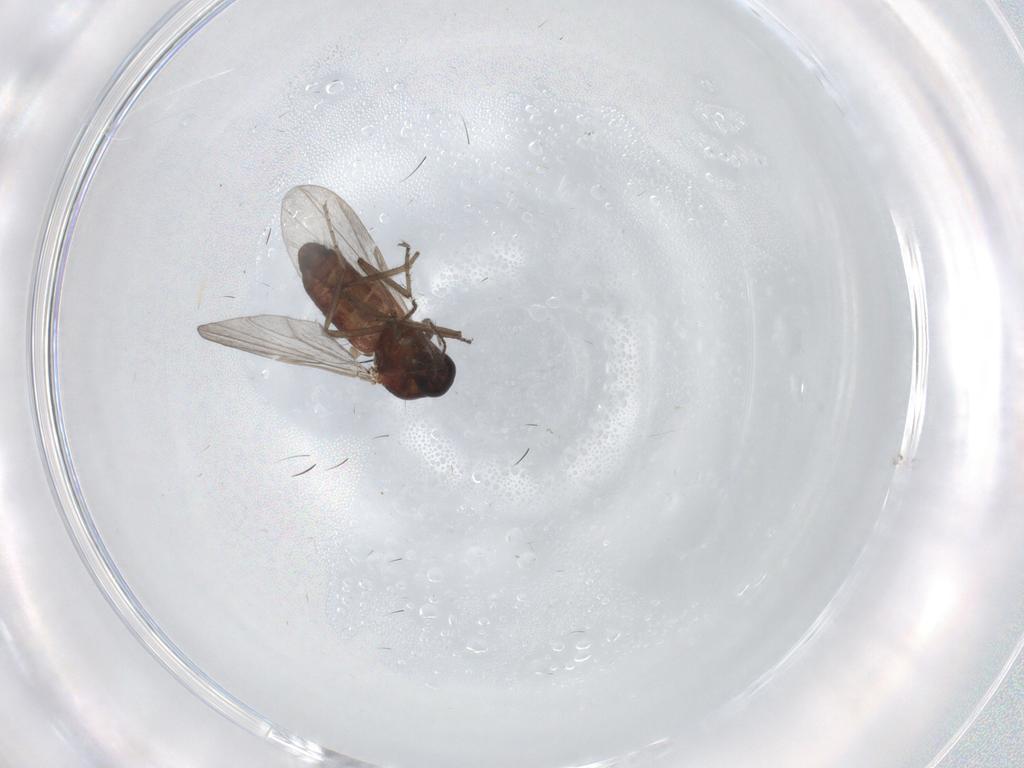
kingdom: Animalia
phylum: Arthropoda
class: Insecta
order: Diptera
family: Ceratopogonidae
